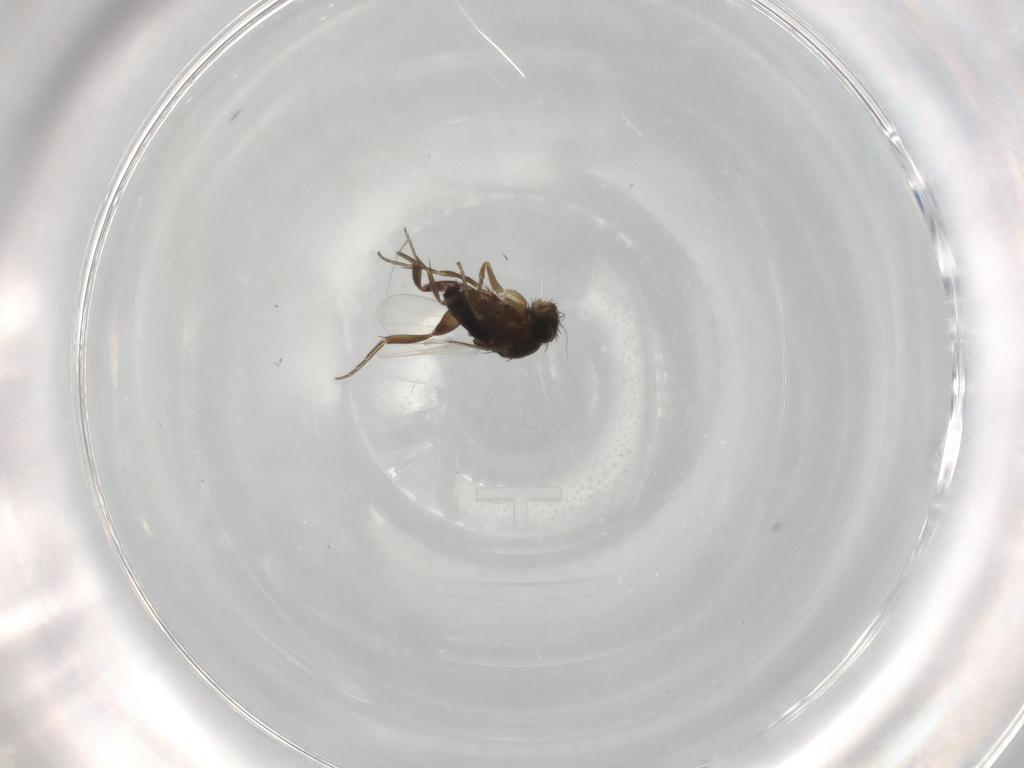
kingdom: Animalia
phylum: Arthropoda
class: Insecta
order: Diptera
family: Phoridae
